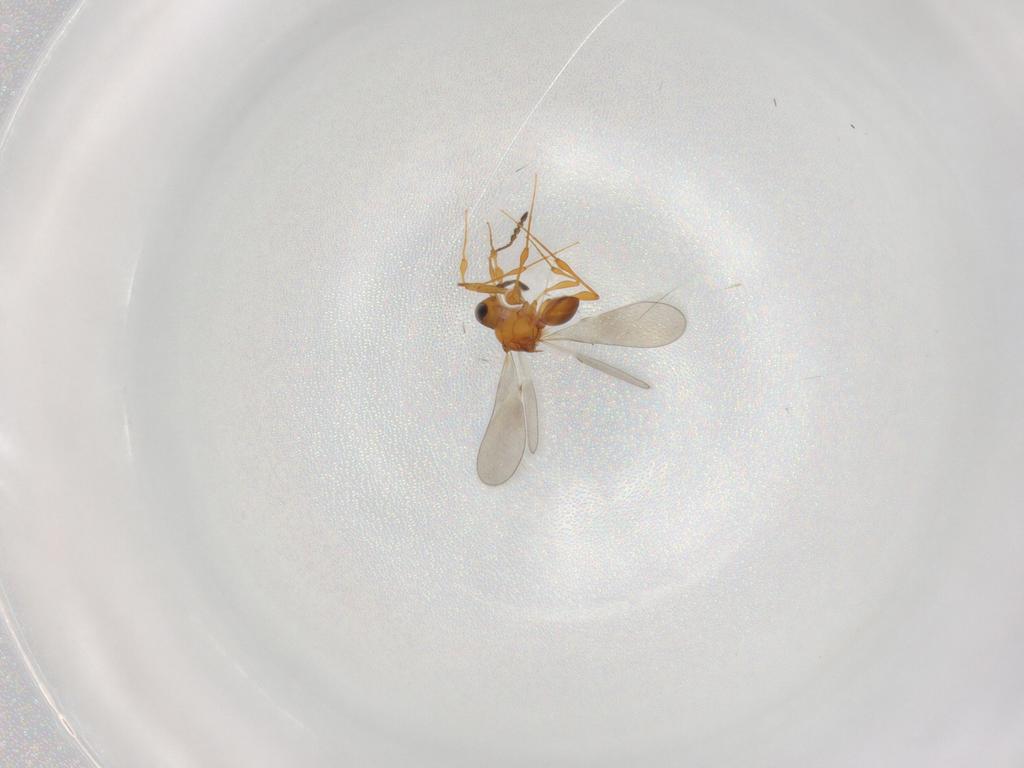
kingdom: Animalia
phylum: Arthropoda
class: Insecta
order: Hymenoptera
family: Platygastridae
